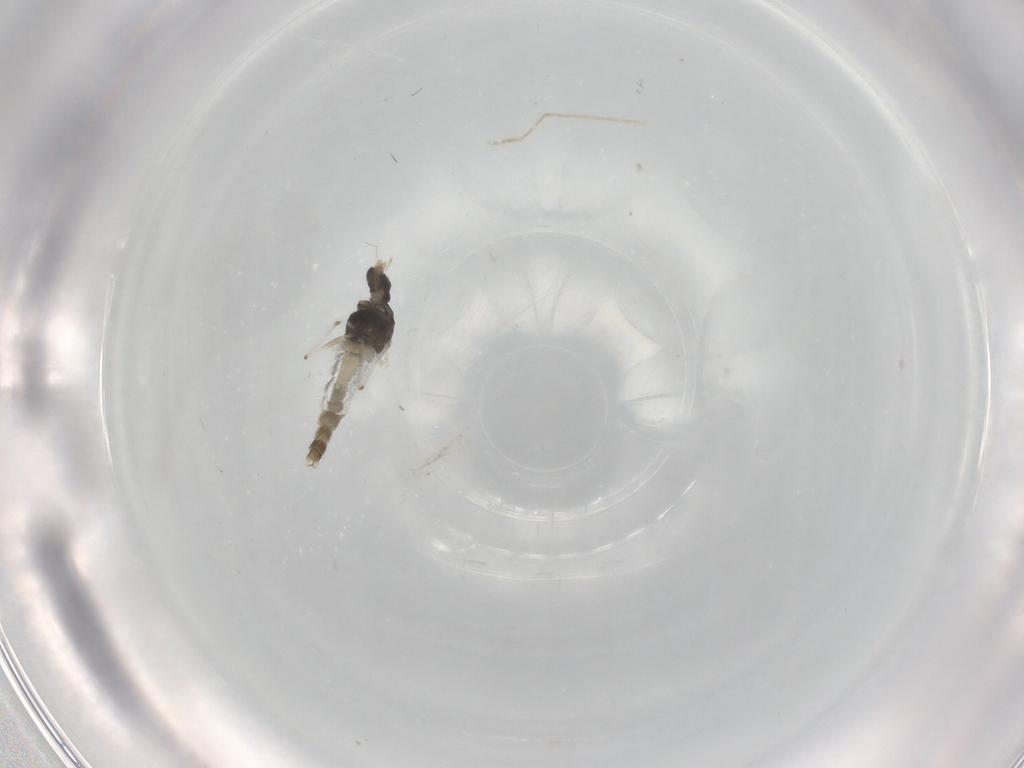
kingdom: Animalia
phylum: Arthropoda
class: Insecta
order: Diptera
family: Chironomidae
